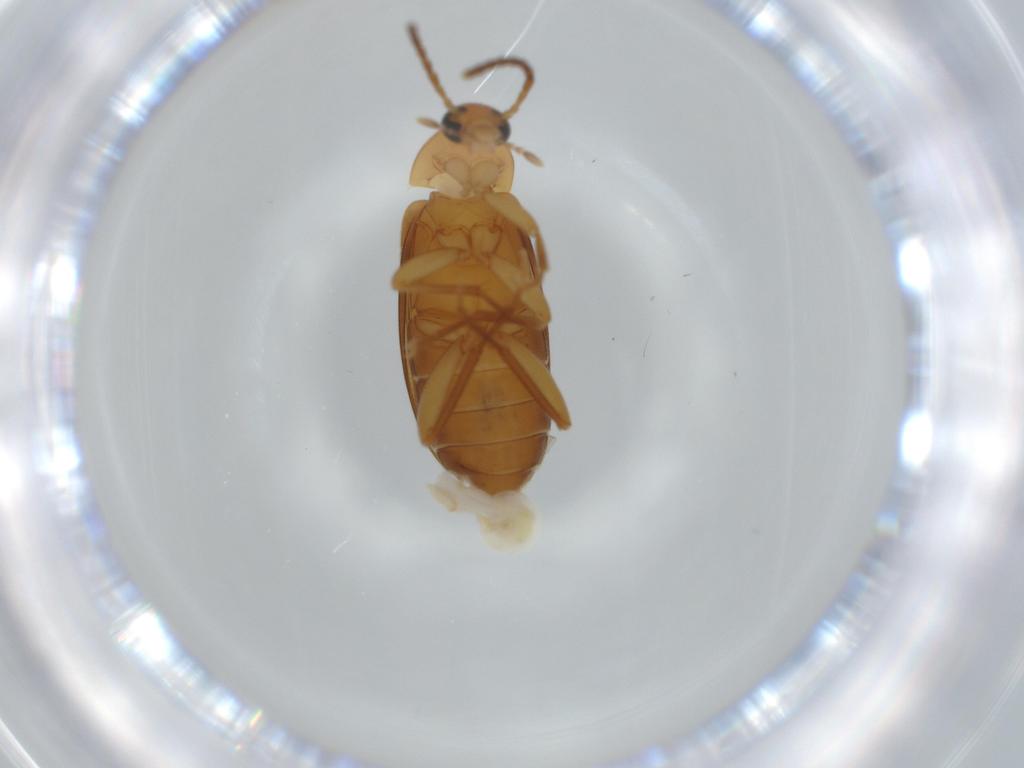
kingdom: Animalia
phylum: Arthropoda
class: Insecta
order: Coleoptera
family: Scraptiidae
